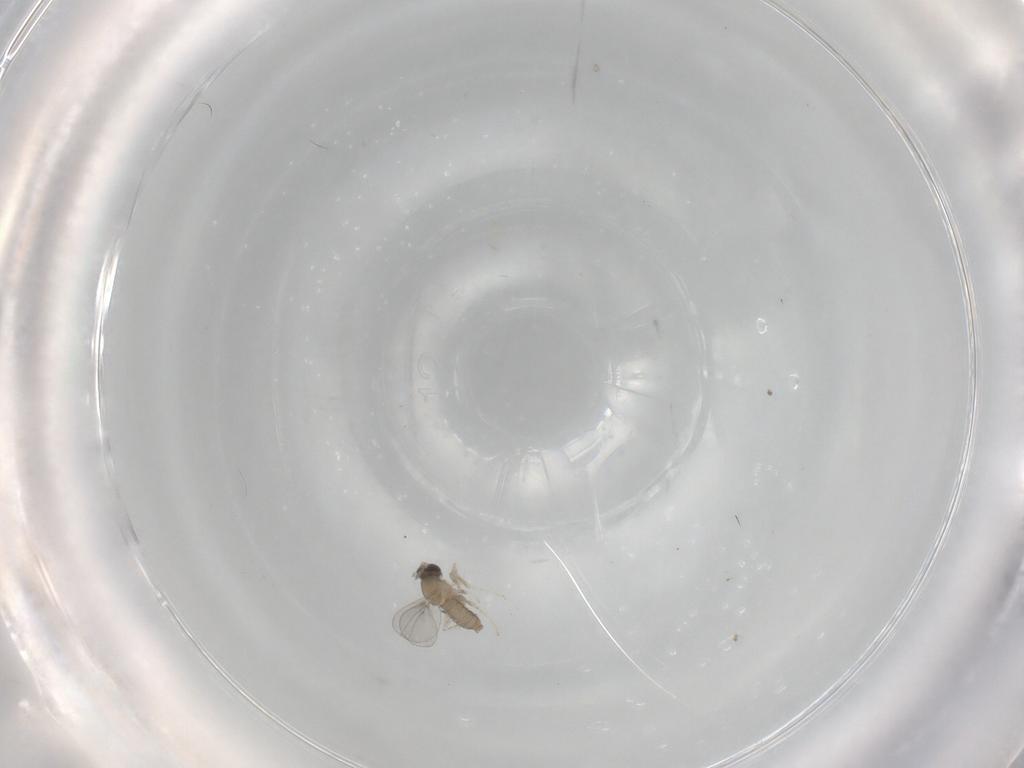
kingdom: Animalia
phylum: Arthropoda
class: Insecta
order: Diptera
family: Cecidomyiidae
